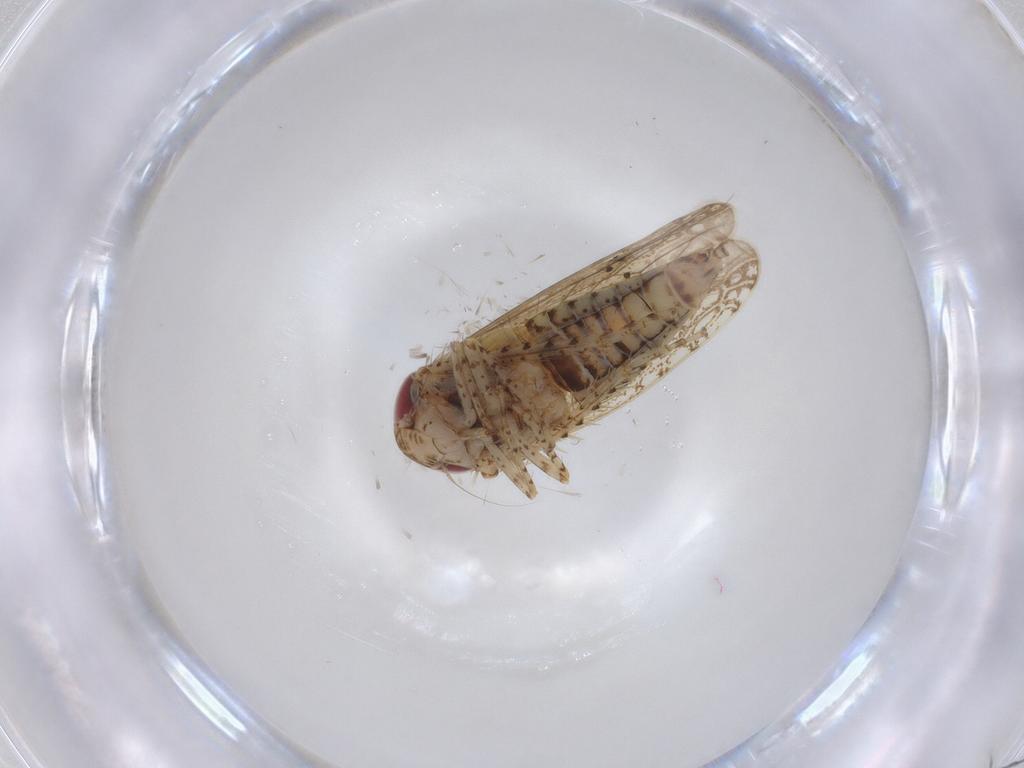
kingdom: Animalia
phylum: Arthropoda
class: Insecta
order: Hemiptera
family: Cicadellidae
